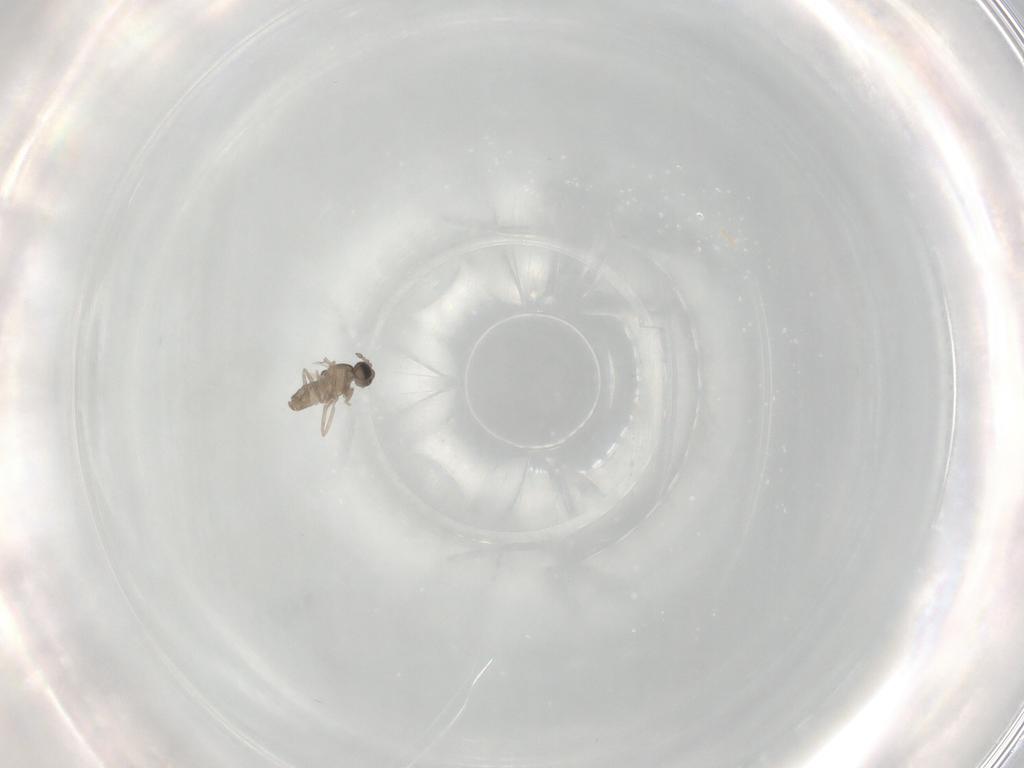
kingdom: Animalia
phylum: Arthropoda
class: Insecta
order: Diptera
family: Cecidomyiidae
